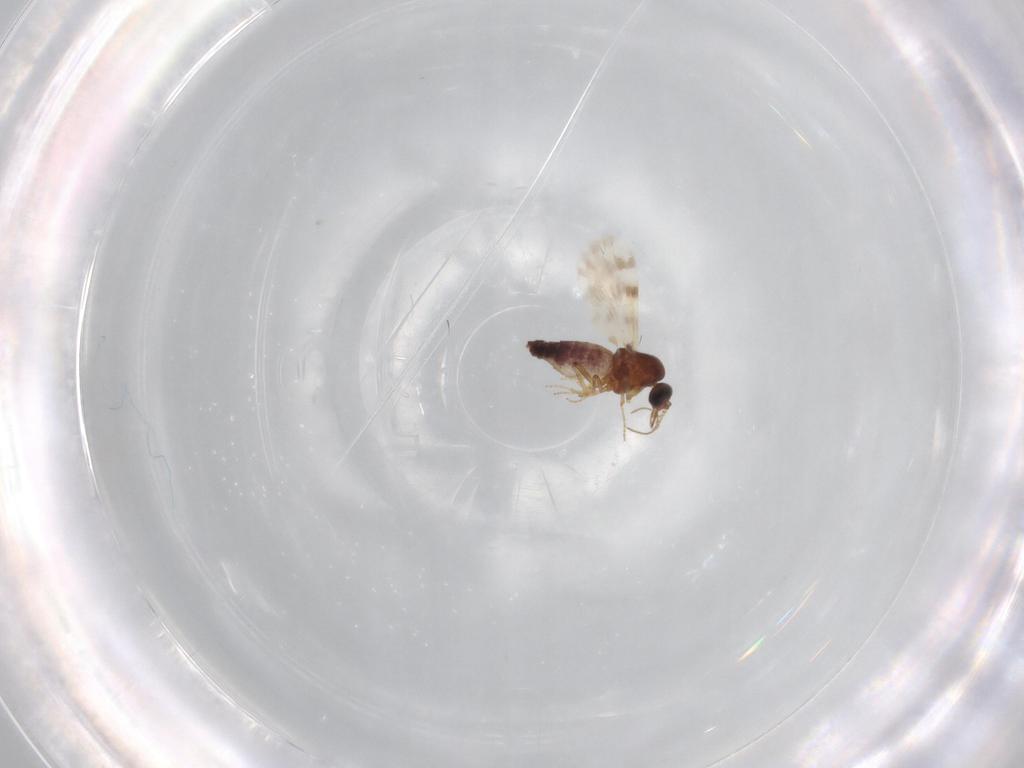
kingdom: Animalia
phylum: Arthropoda
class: Insecta
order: Diptera
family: Calliphoridae
